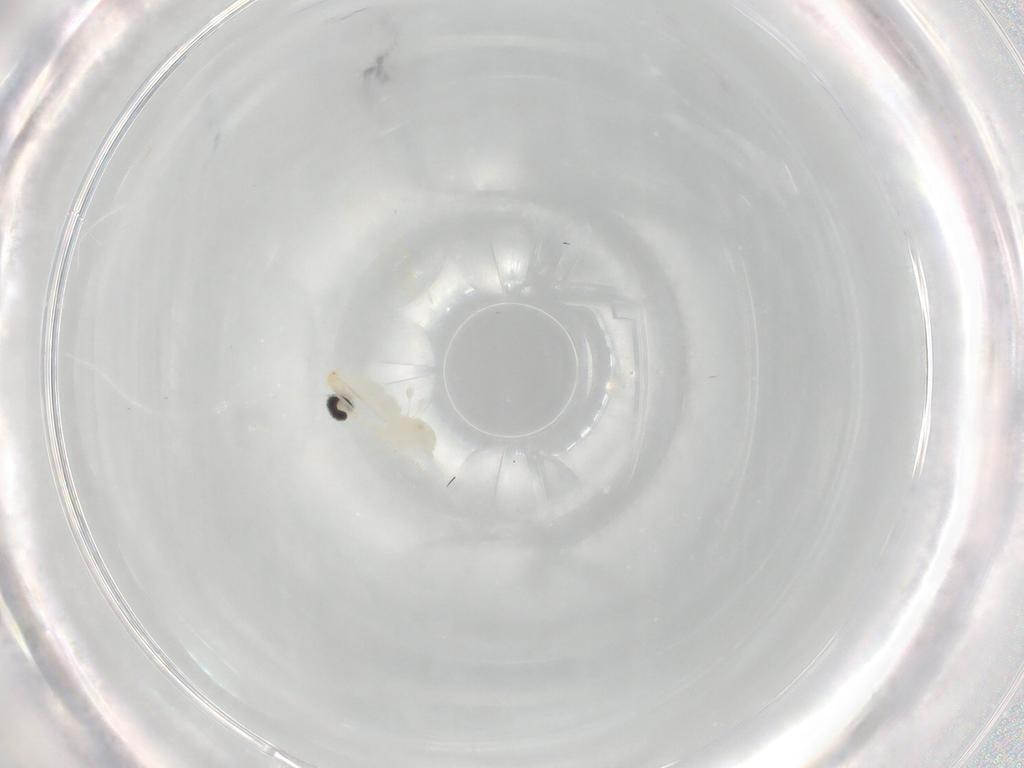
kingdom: Animalia
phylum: Arthropoda
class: Insecta
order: Diptera
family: Cecidomyiidae
